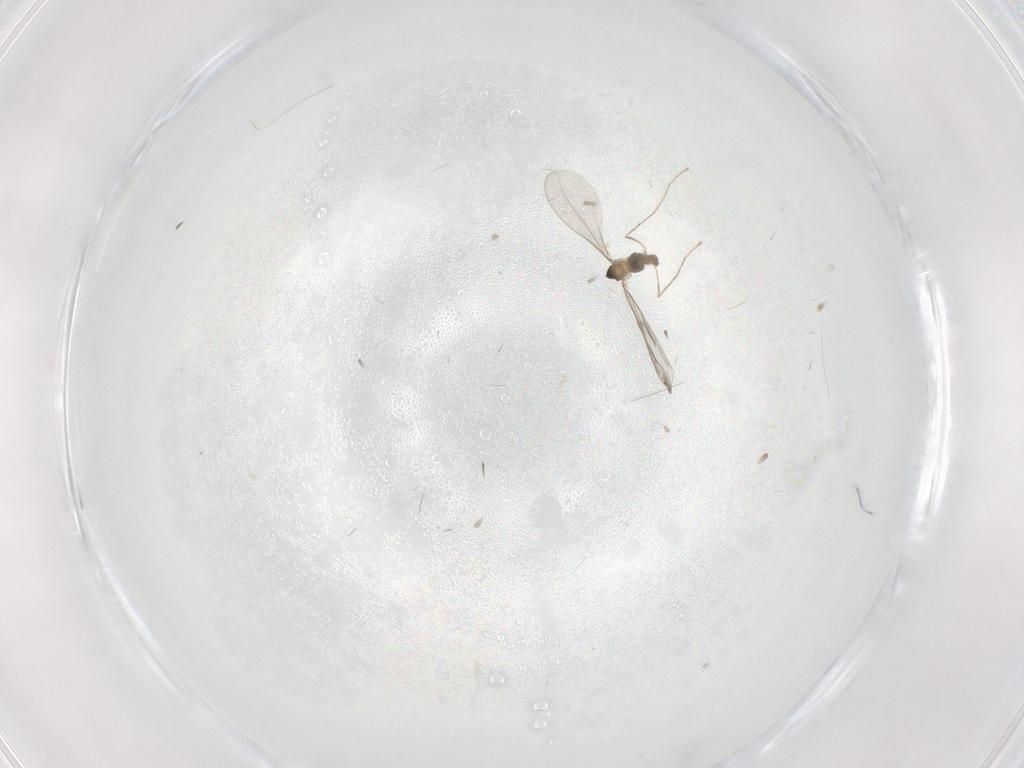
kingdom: Animalia
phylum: Arthropoda
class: Insecta
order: Diptera
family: Cecidomyiidae
